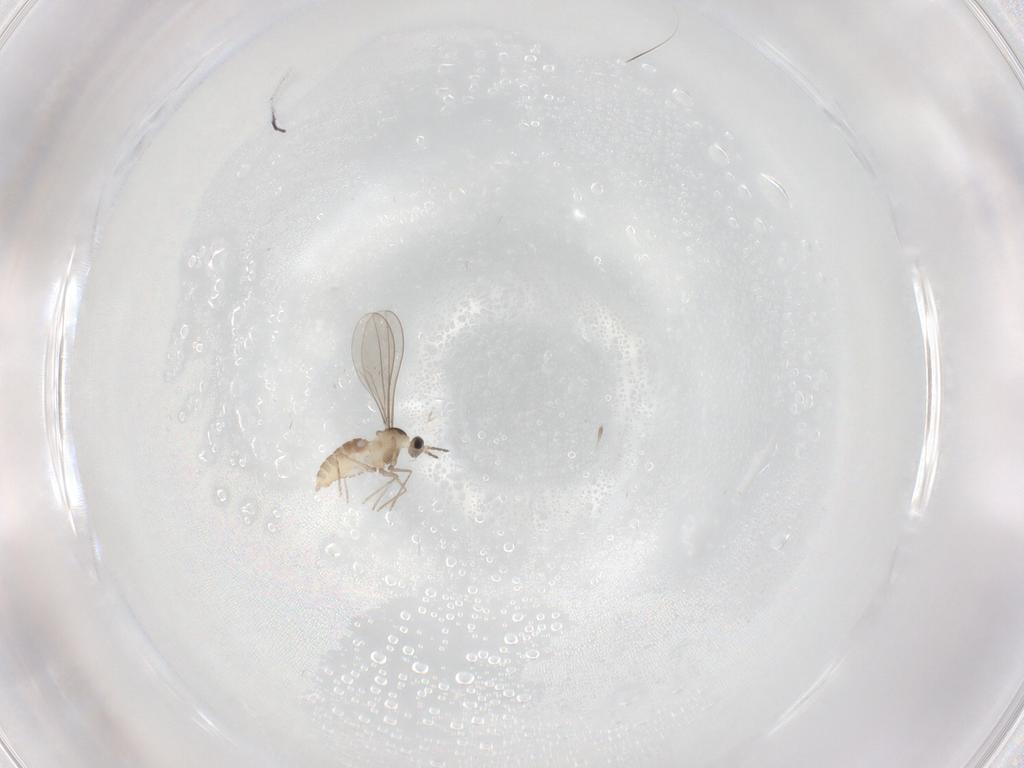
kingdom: Animalia
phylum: Arthropoda
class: Insecta
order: Diptera
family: Cecidomyiidae
